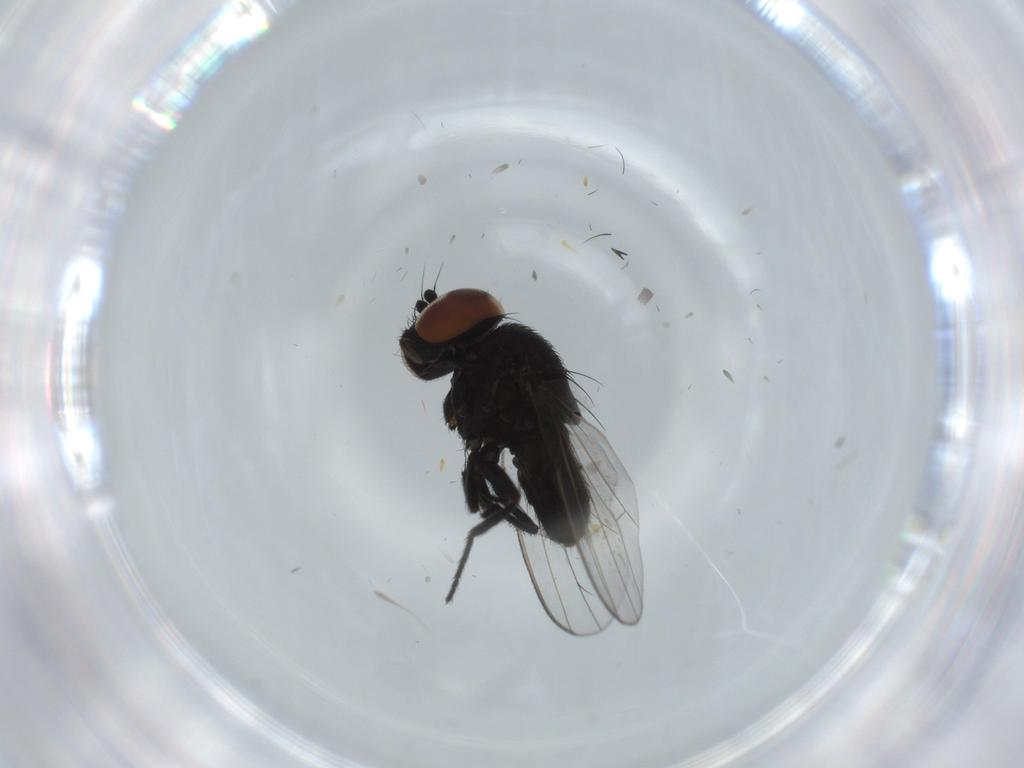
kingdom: Animalia
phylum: Arthropoda
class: Insecta
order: Diptera
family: Milichiidae
